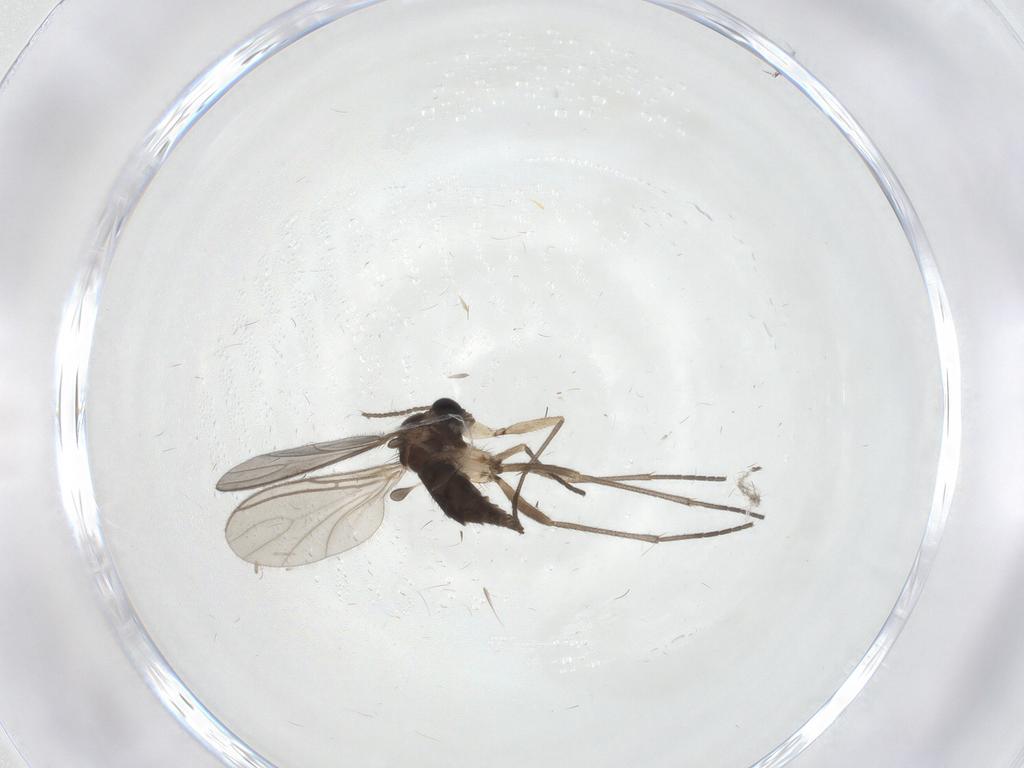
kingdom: Animalia
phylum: Arthropoda
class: Insecta
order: Diptera
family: Sciaridae
